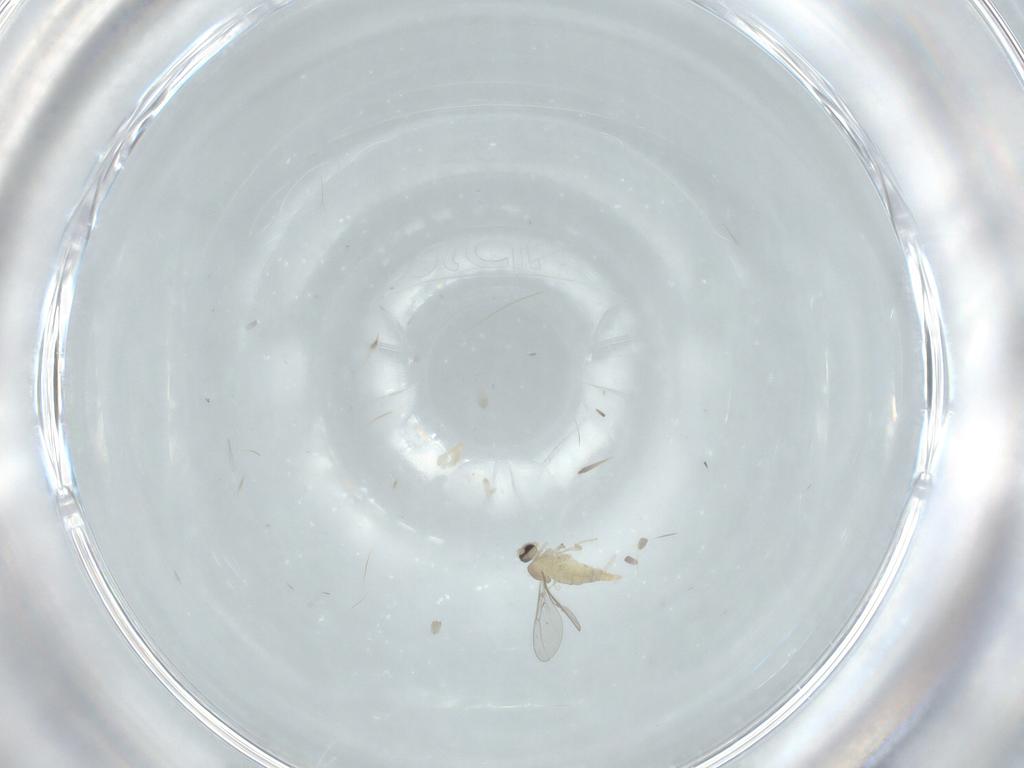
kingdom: Animalia
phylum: Arthropoda
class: Insecta
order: Diptera
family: Cecidomyiidae
